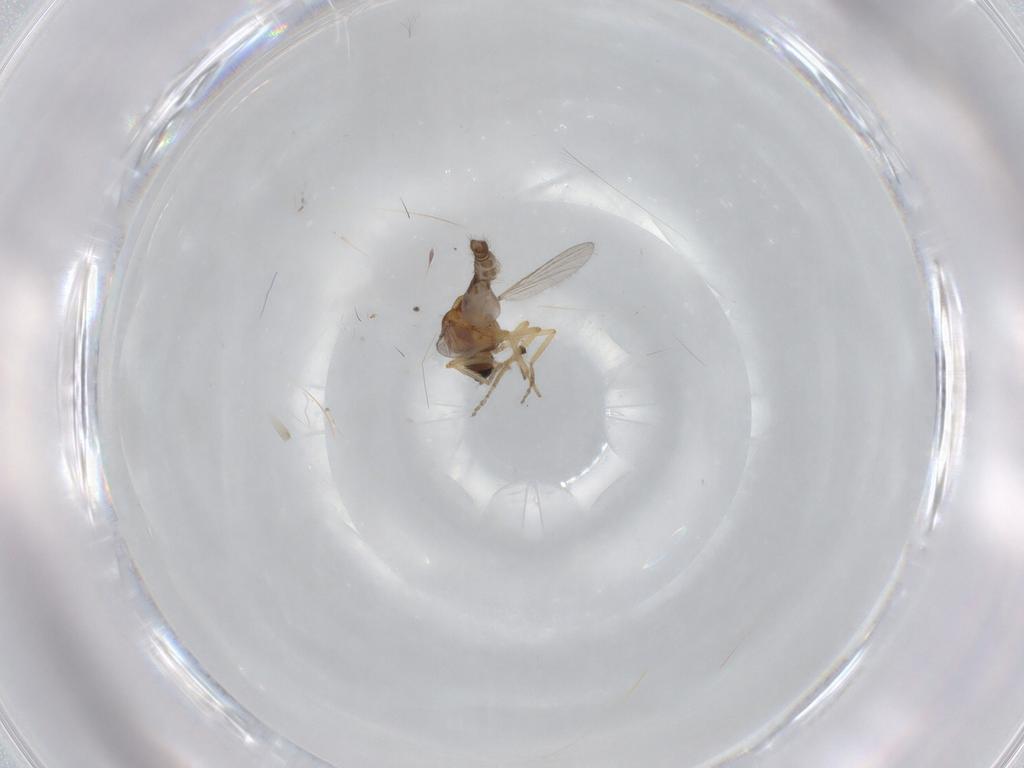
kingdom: Animalia
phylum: Arthropoda
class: Insecta
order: Diptera
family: Ceratopogonidae
